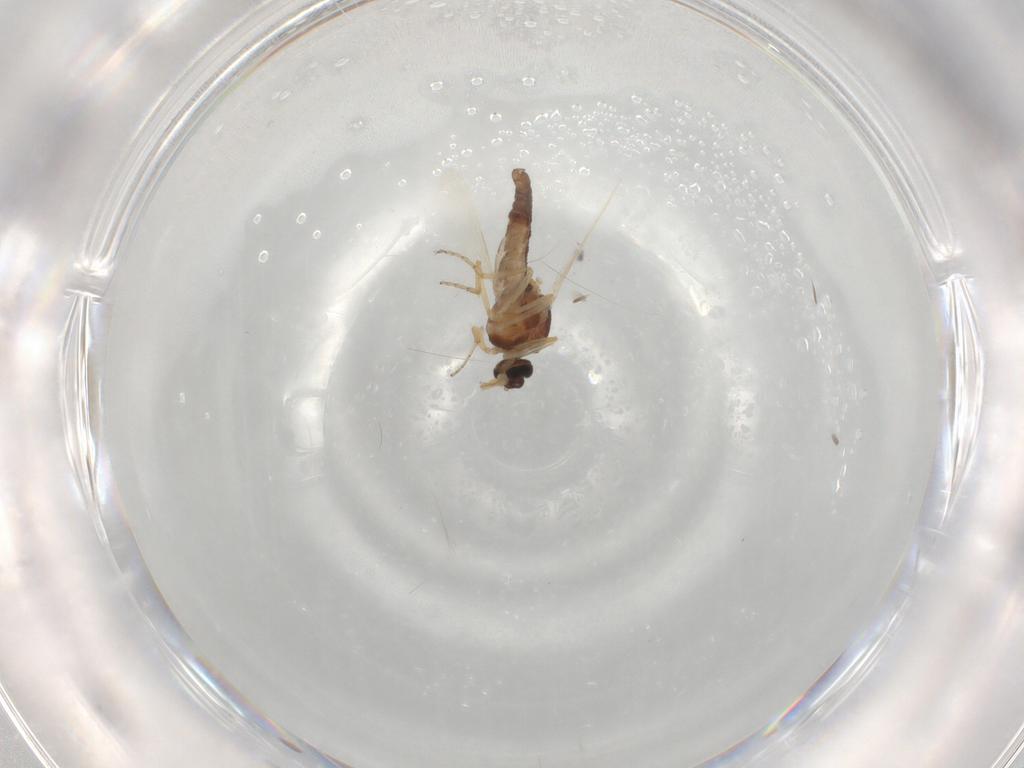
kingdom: Animalia
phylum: Arthropoda
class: Insecta
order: Diptera
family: Ceratopogonidae
